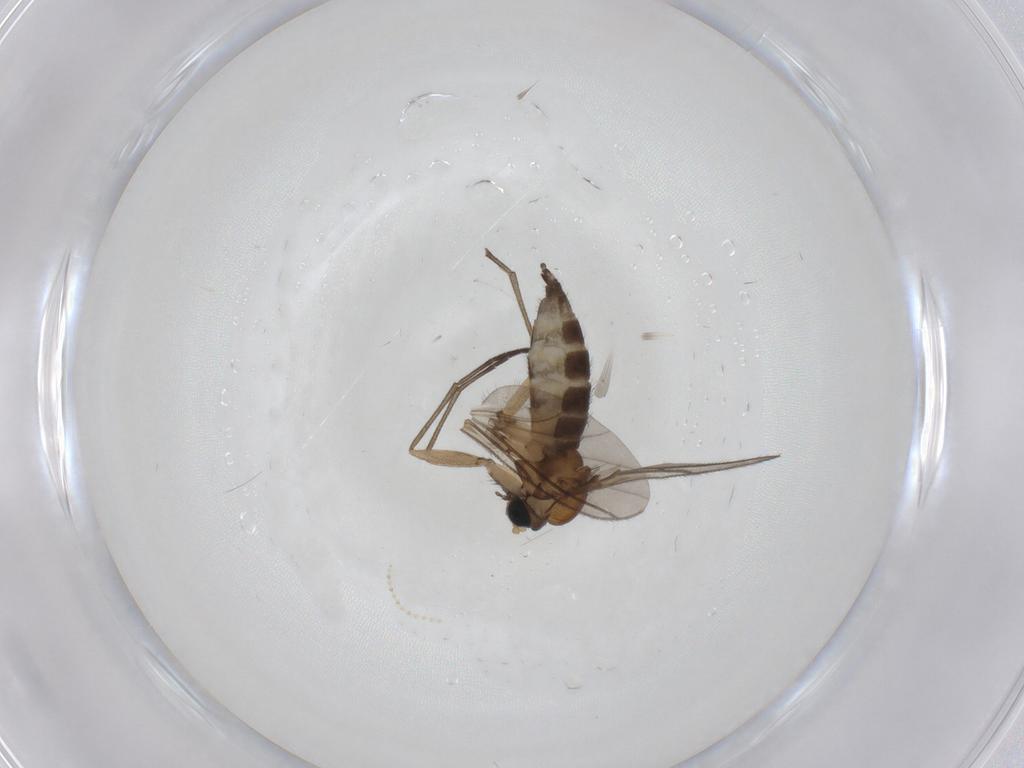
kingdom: Animalia
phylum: Arthropoda
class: Insecta
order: Diptera
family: Sciaridae
